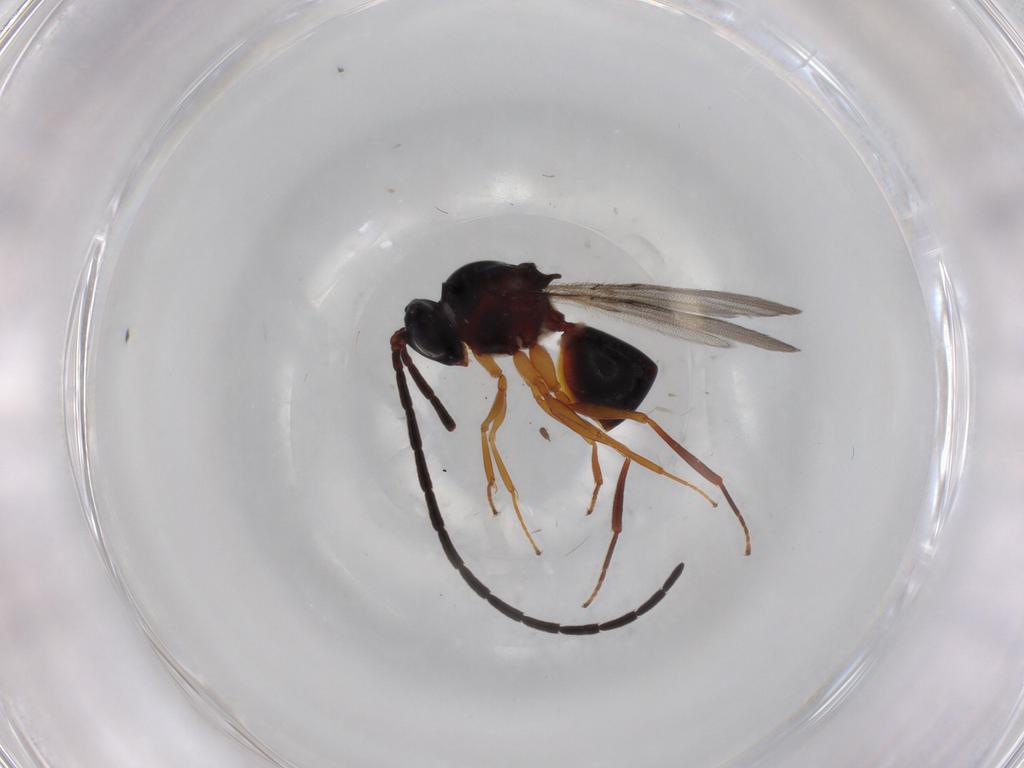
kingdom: Animalia
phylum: Arthropoda
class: Insecta
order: Hymenoptera
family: Figitidae
